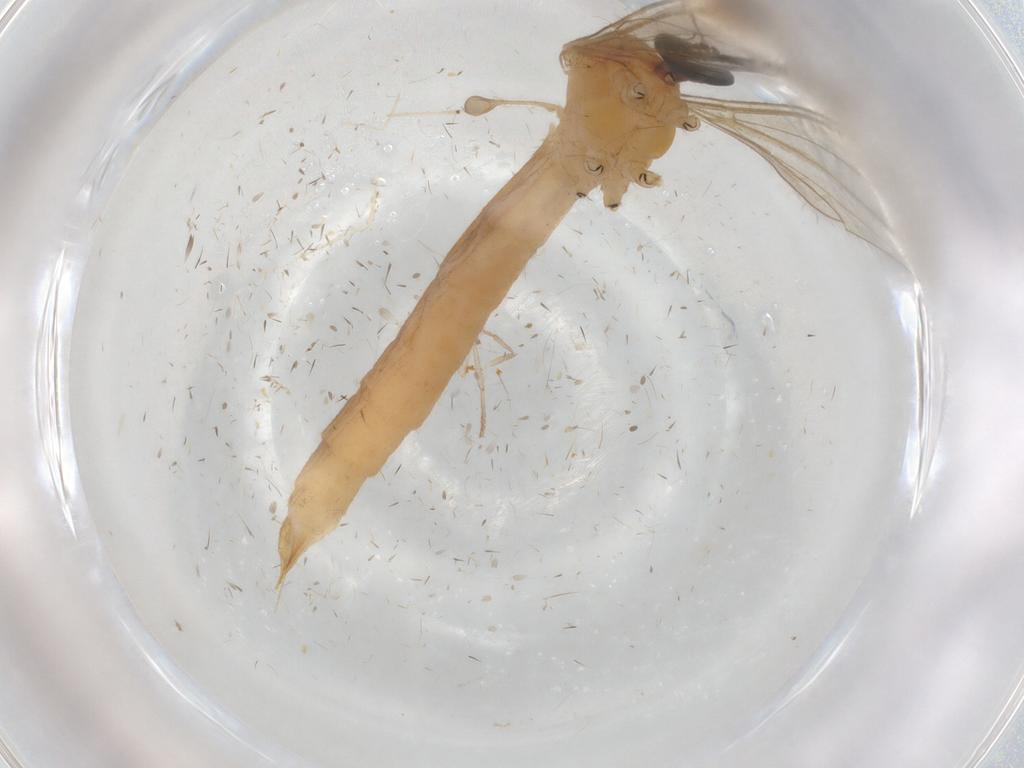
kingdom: Animalia
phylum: Arthropoda
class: Insecta
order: Diptera
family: Limoniidae
